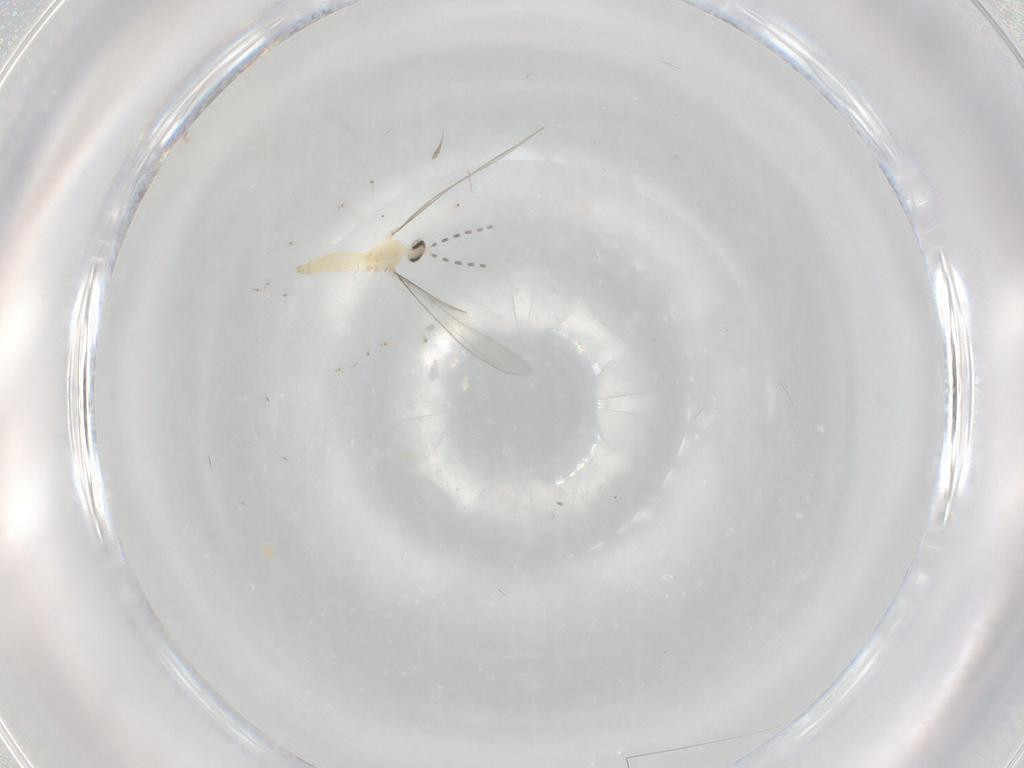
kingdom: Animalia
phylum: Arthropoda
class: Insecta
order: Diptera
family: Cecidomyiidae
